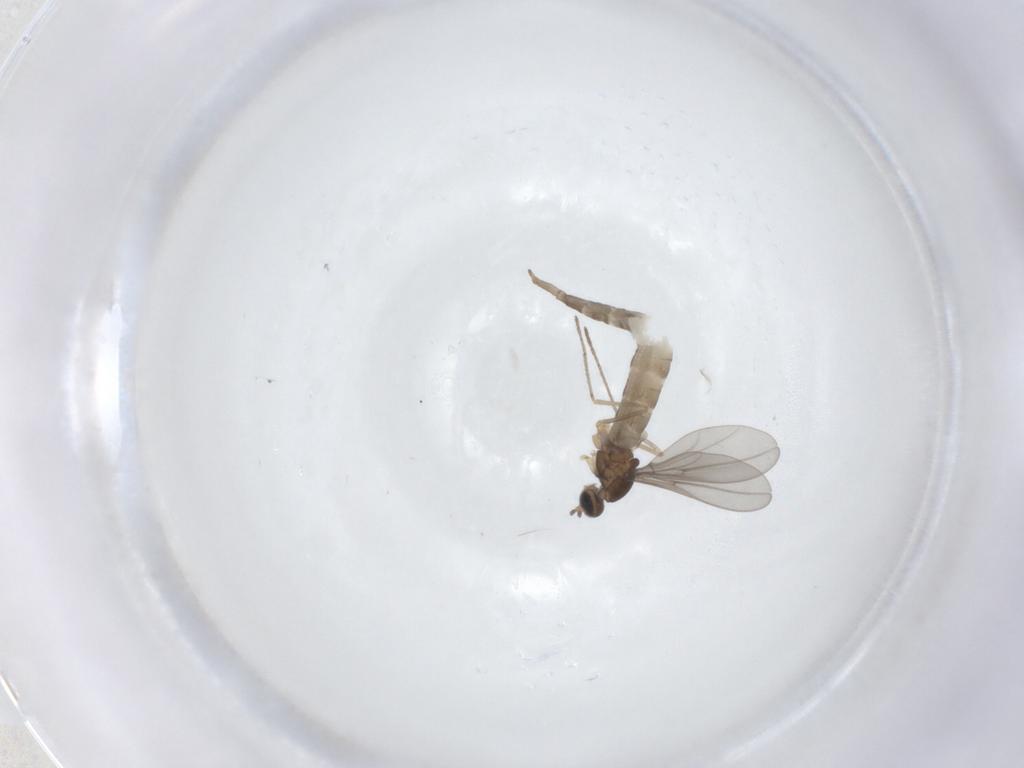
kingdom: Animalia
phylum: Arthropoda
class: Insecta
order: Diptera
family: Cecidomyiidae
